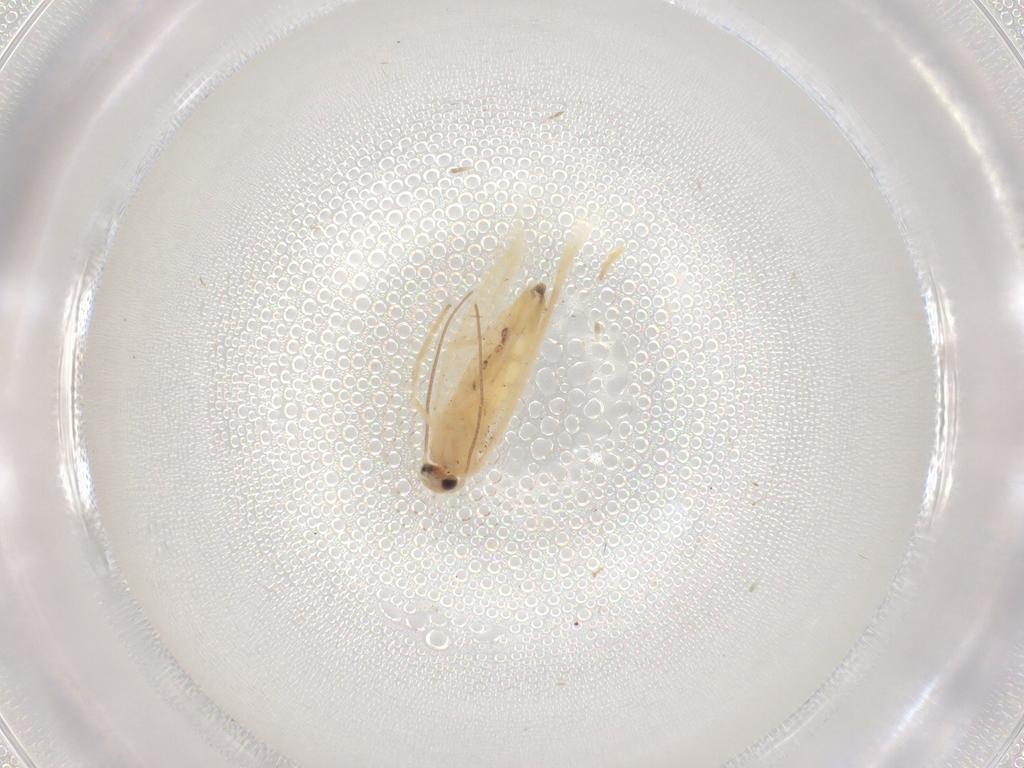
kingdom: Animalia
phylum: Arthropoda
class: Insecta
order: Lepidoptera
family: Gelechiidae
